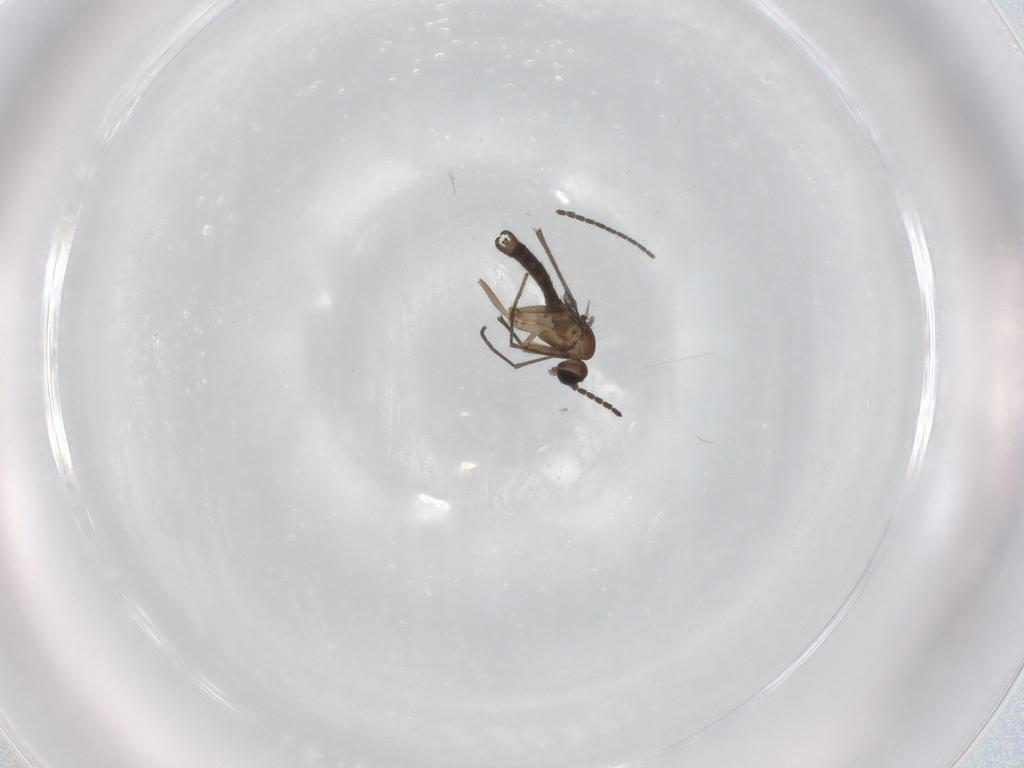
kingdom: Animalia
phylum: Arthropoda
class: Insecta
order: Diptera
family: Sciaridae
